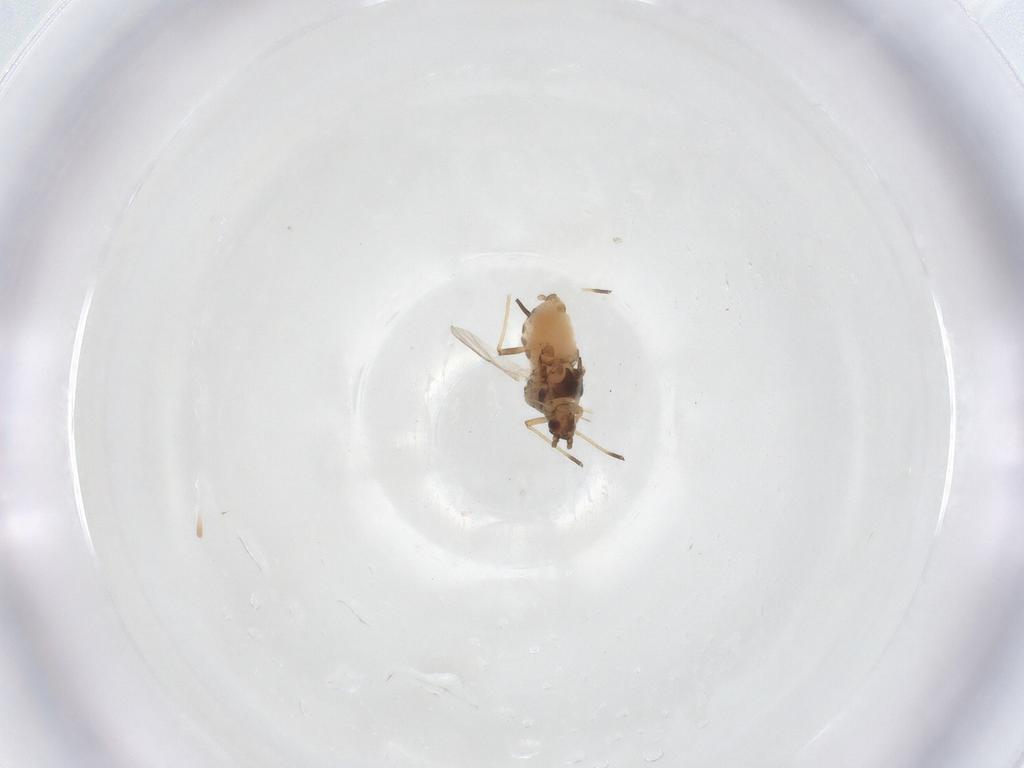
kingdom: Animalia
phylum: Arthropoda
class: Insecta
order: Hemiptera
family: Aphididae
